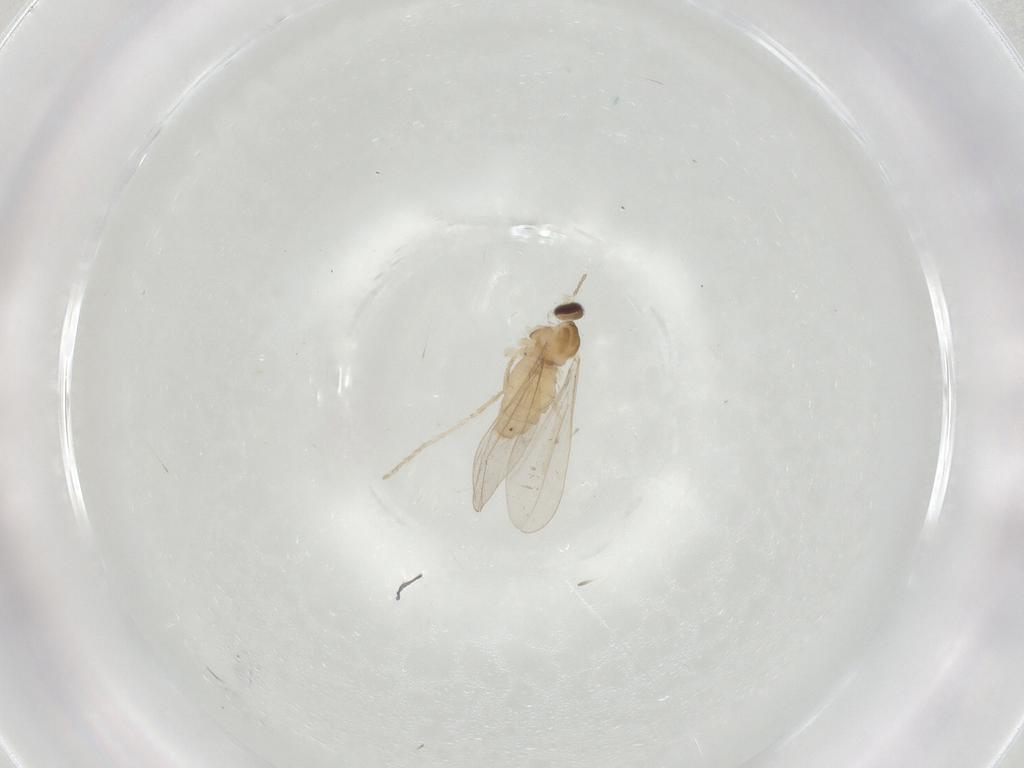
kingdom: Animalia
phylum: Arthropoda
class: Insecta
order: Diptera
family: Cecidomyiidae
